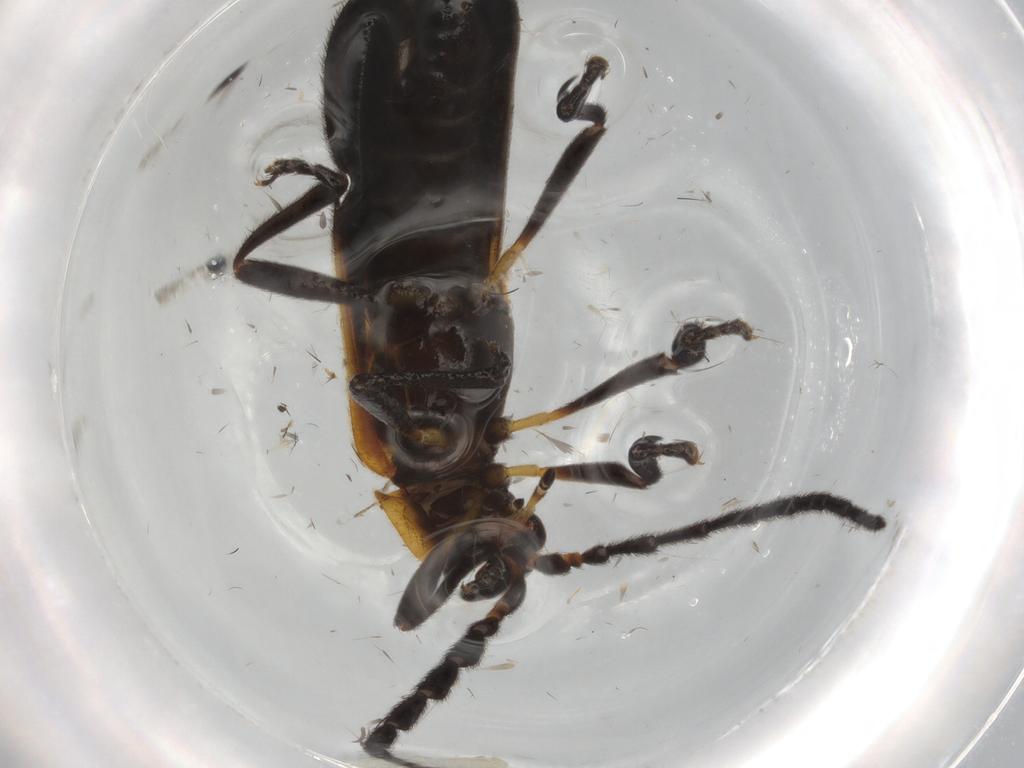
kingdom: Animalia
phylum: Arthropoda
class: Insecta
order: Coleoptera
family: Lycidae
